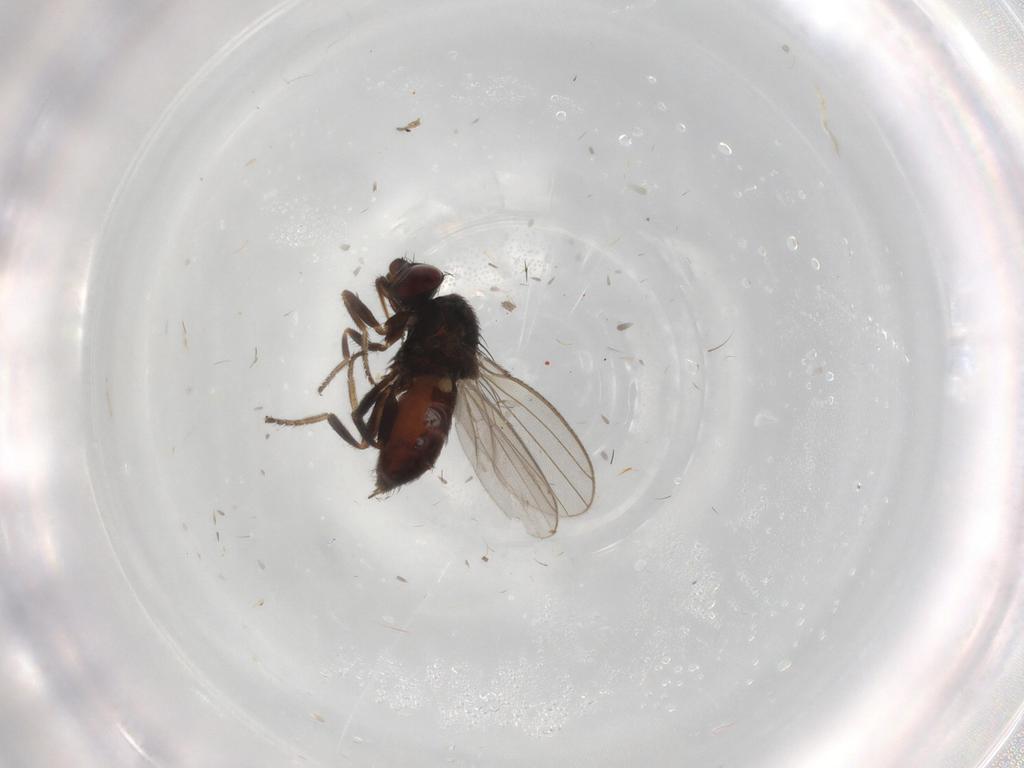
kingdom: Animalia
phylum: Arthropoda
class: Insecta
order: Diptera
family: Milichiidae
